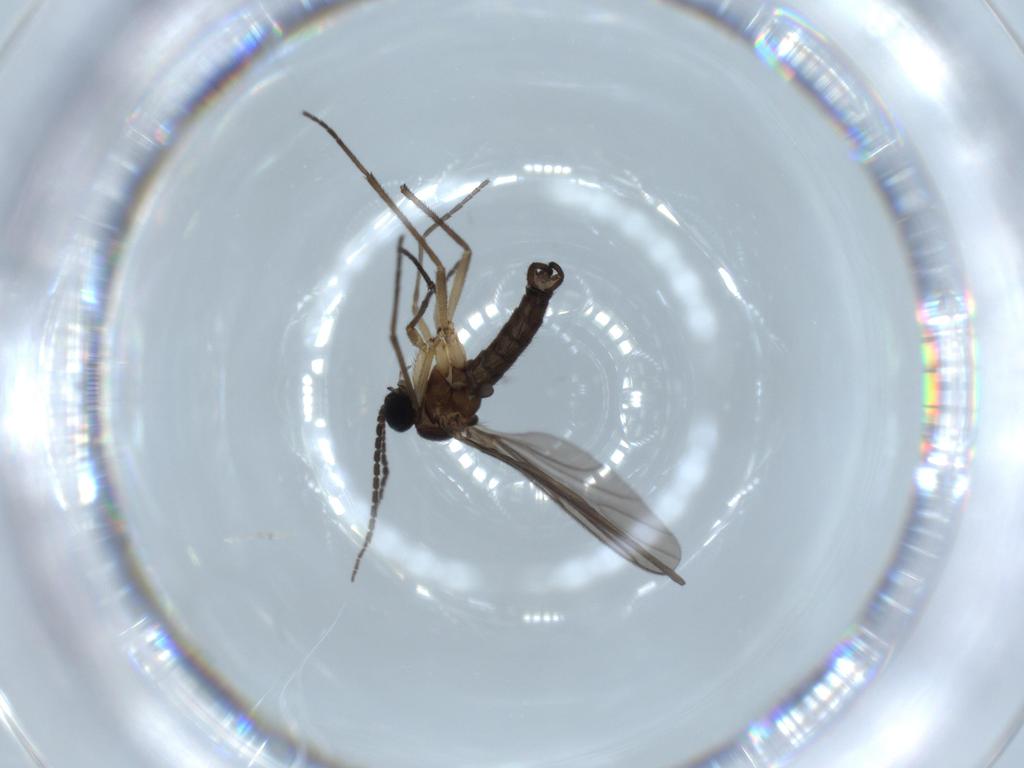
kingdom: Animalia
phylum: Arthropoda
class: Insecta
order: Diptera
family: Sciaridae
